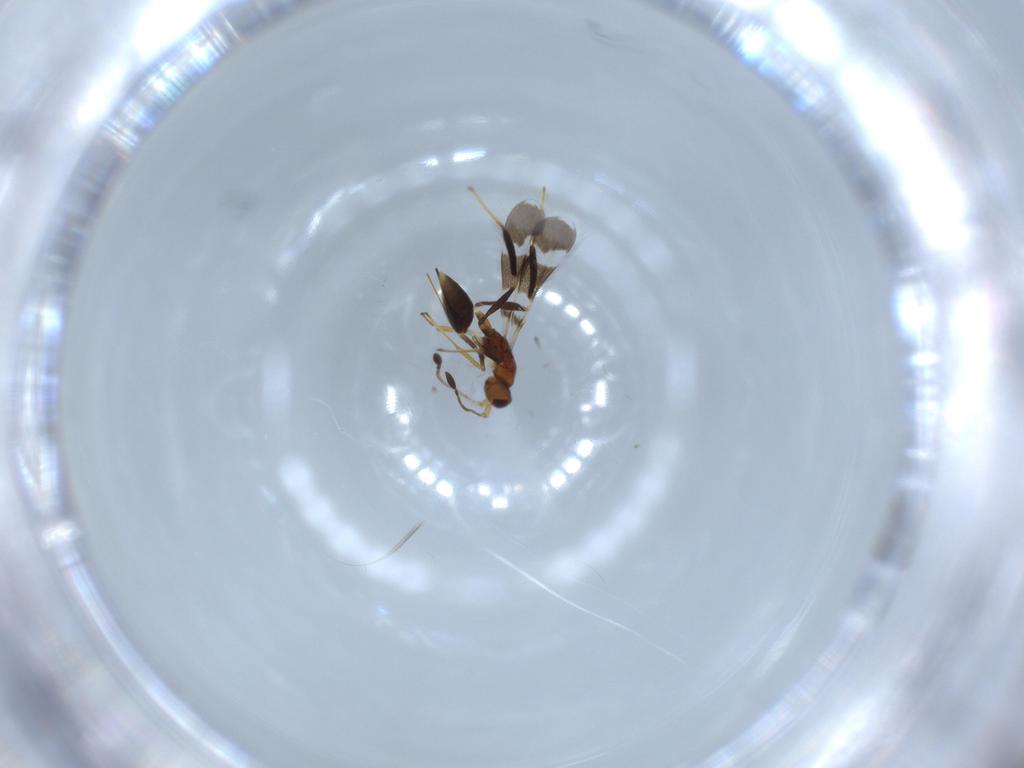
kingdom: Animalia
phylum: Arthropoda
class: Insecta
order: Hymenoptera
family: Mymaridae
